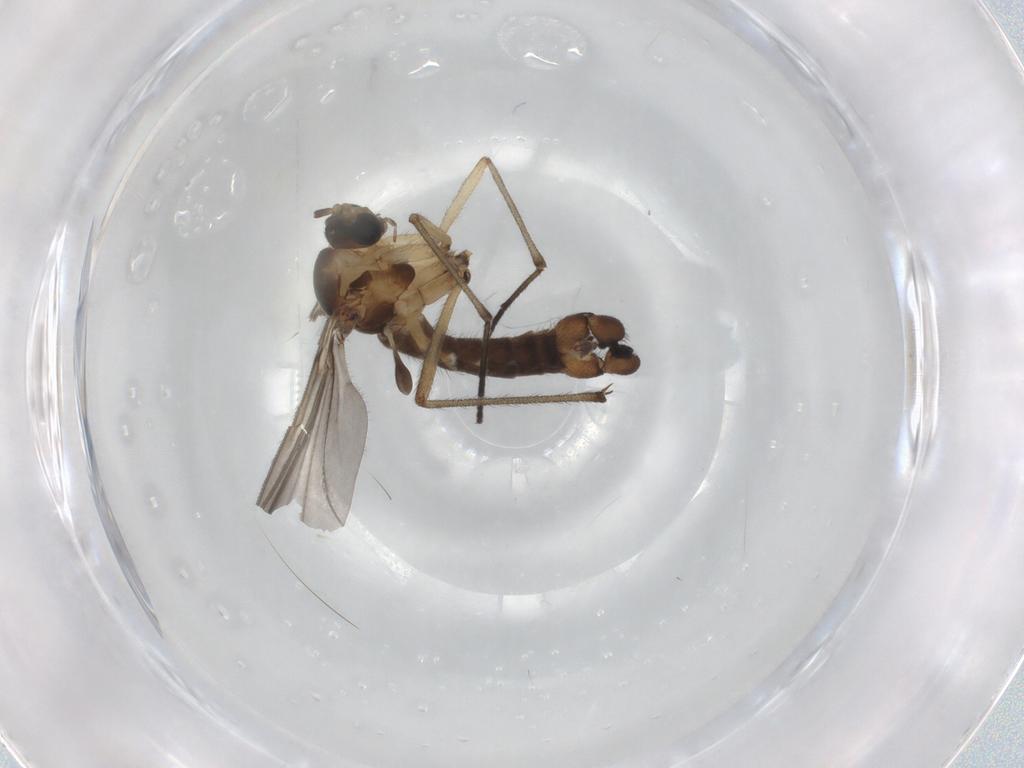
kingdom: Animalia
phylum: Arthropoda
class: Insecta
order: Diptera
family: Sciaridae
